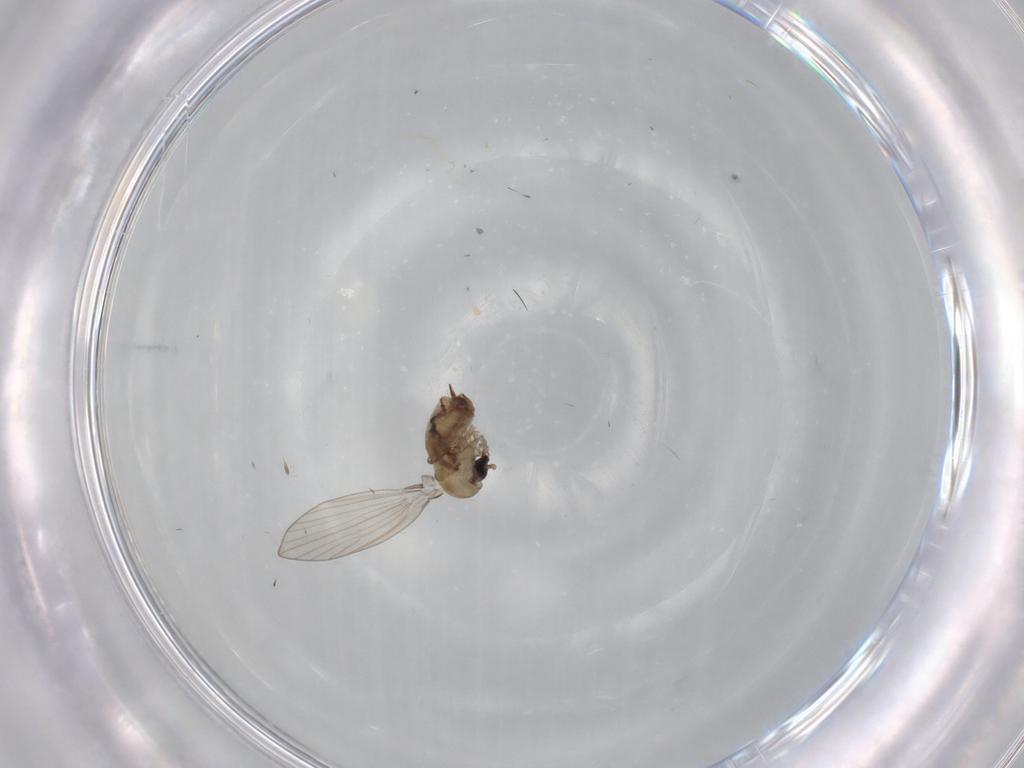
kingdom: Animalia
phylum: Arthropoda
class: Insecta
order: Diptera
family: Psychodidae
